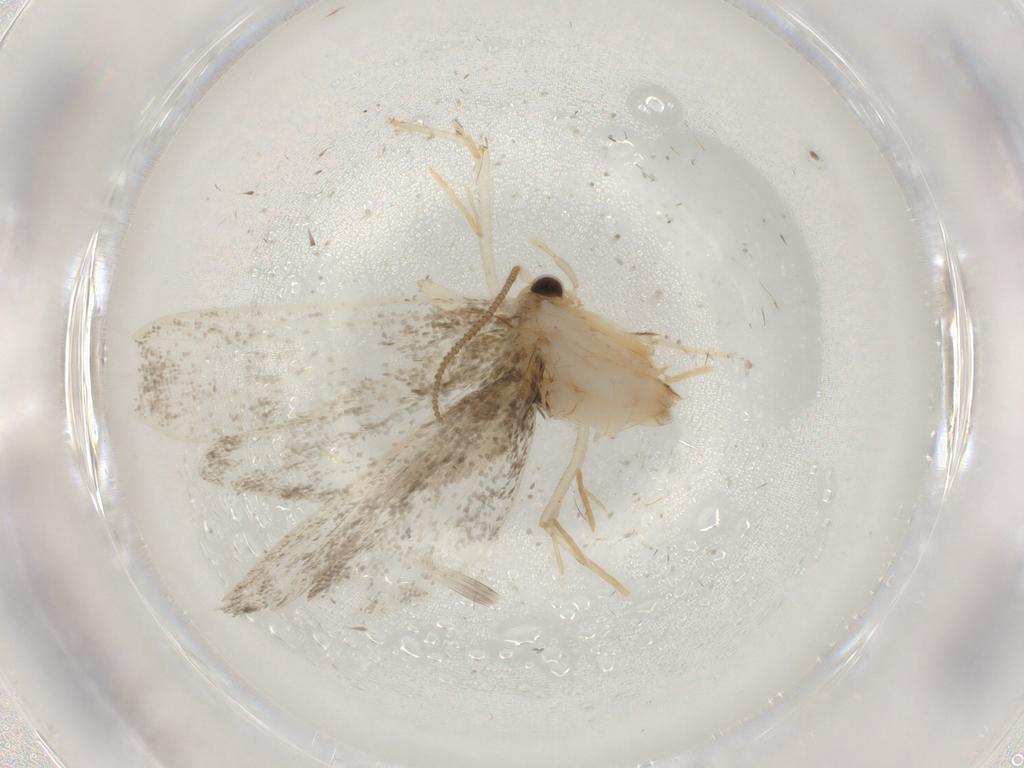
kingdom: Animalia
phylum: Arthropoda
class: Insecta
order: Lepidoptera
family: Tineidae
